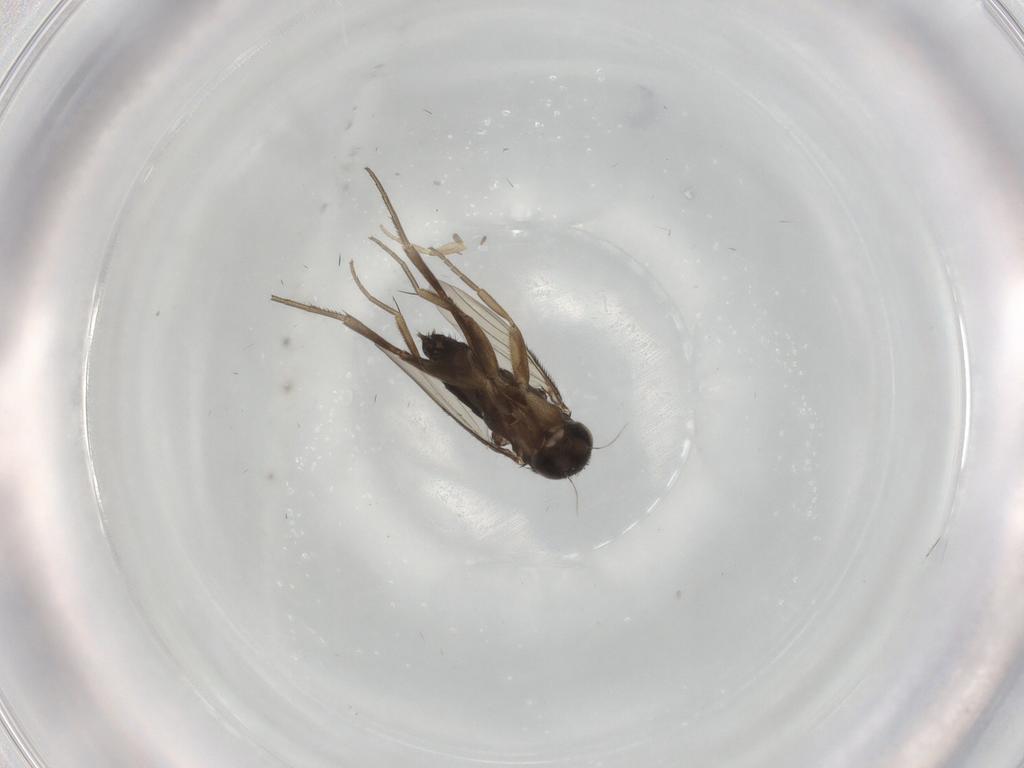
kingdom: Animalia
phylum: Arthropoda
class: Insecta
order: Diptera
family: Phoridae
